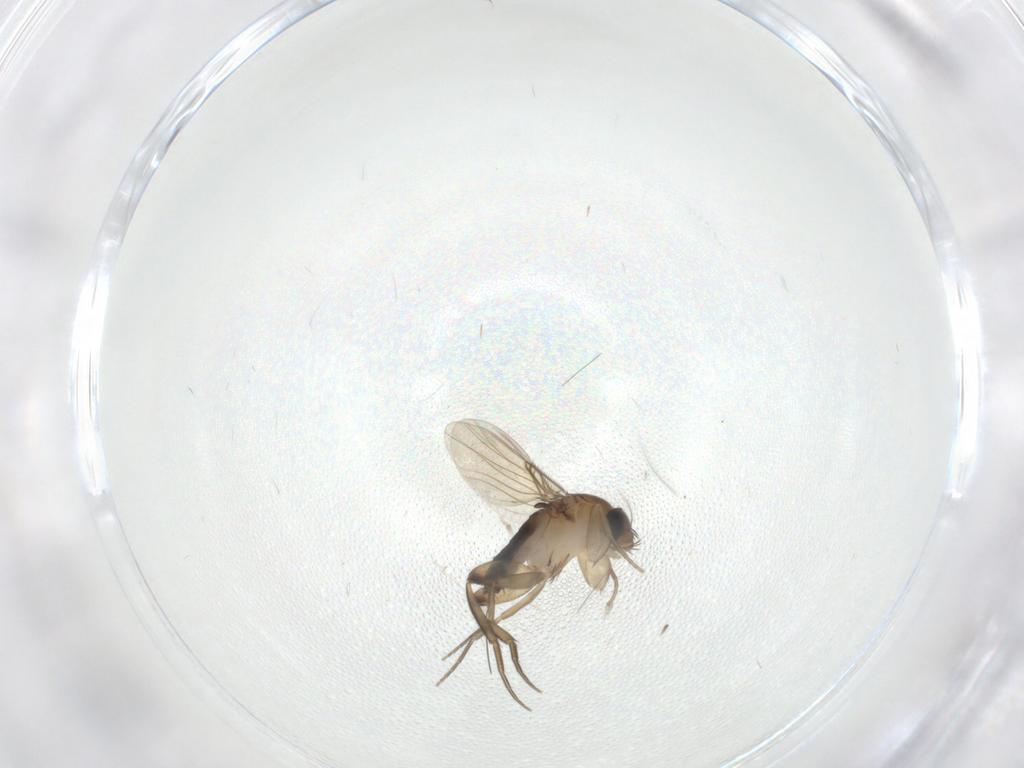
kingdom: Animalia
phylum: Arthropoda
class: Insecta
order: Diptera
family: Phoridae
